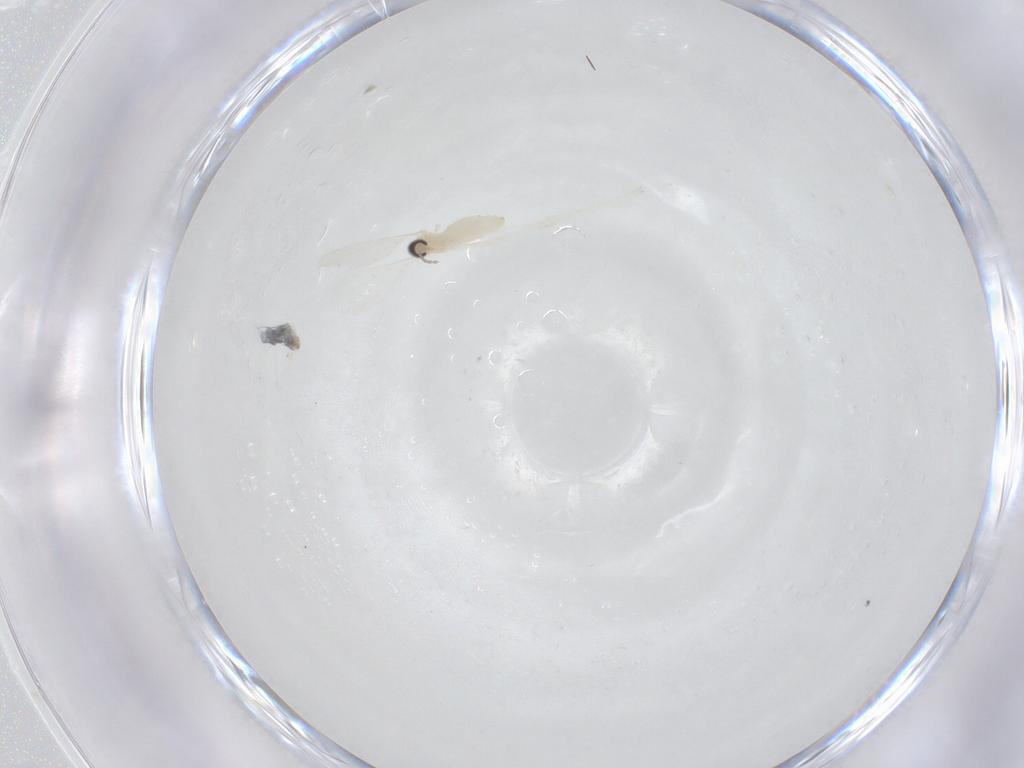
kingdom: Animalia
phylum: Arthropoda
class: Insecta
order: Diptera
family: Cecidomyiidae
